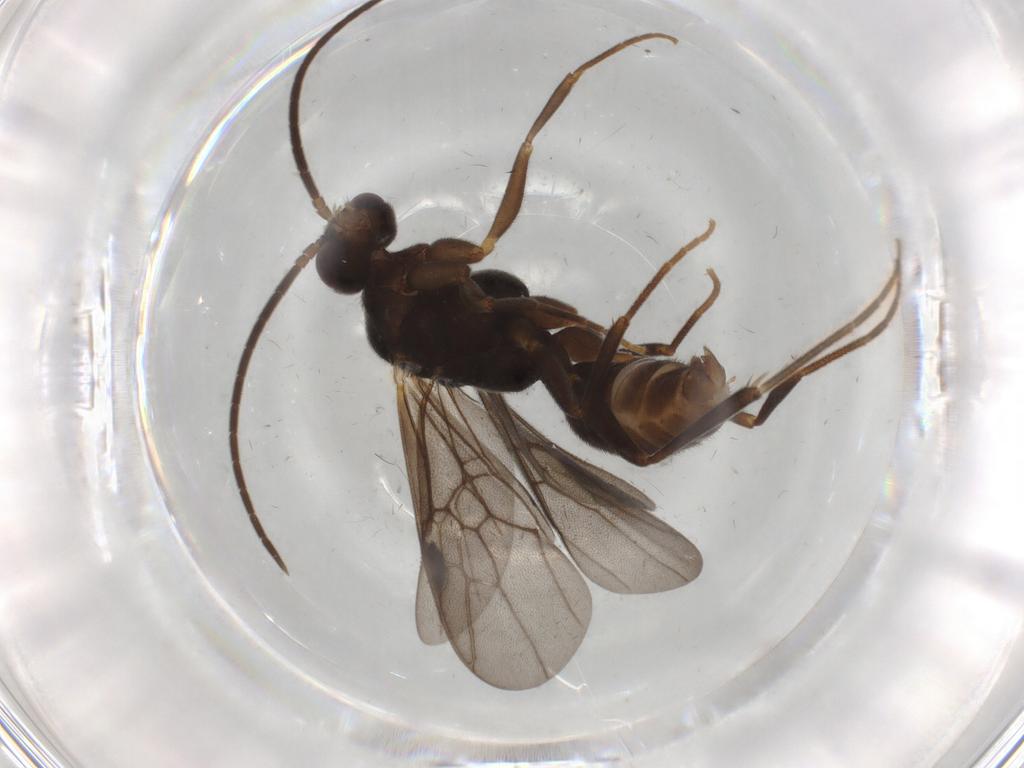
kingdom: Animalia
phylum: Arthropoda
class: Insecta
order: Hymenoptera
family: Formicidae
